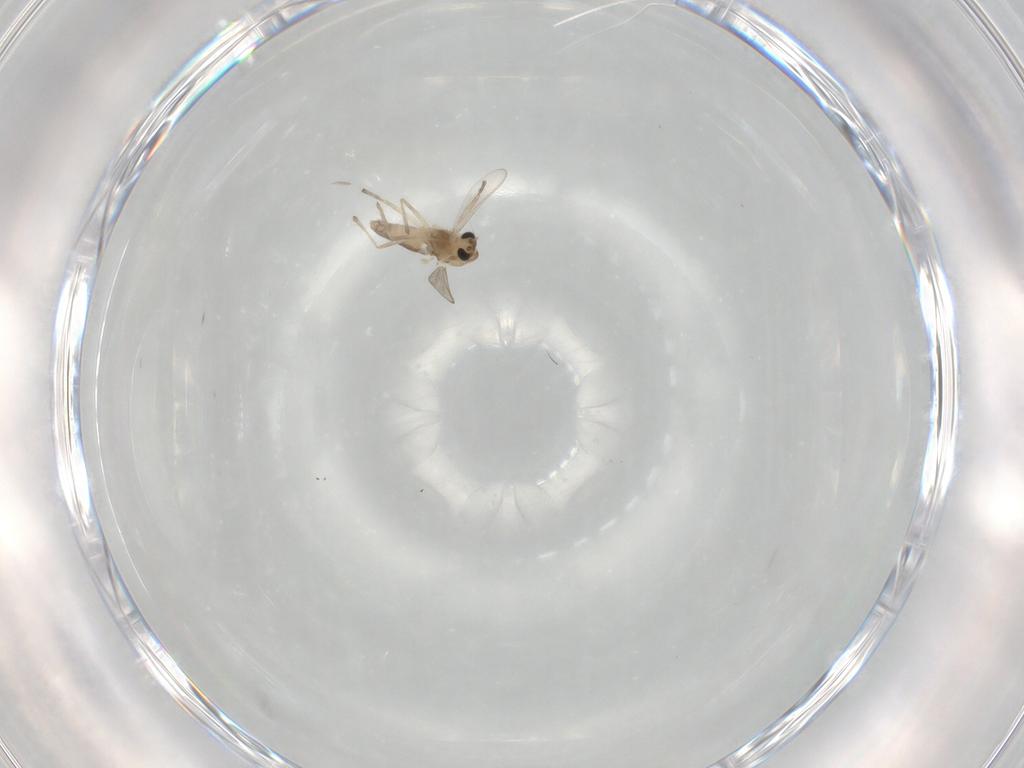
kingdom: Animalia
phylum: Arthropoda
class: Insecta
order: Diptera
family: Chironomidae
